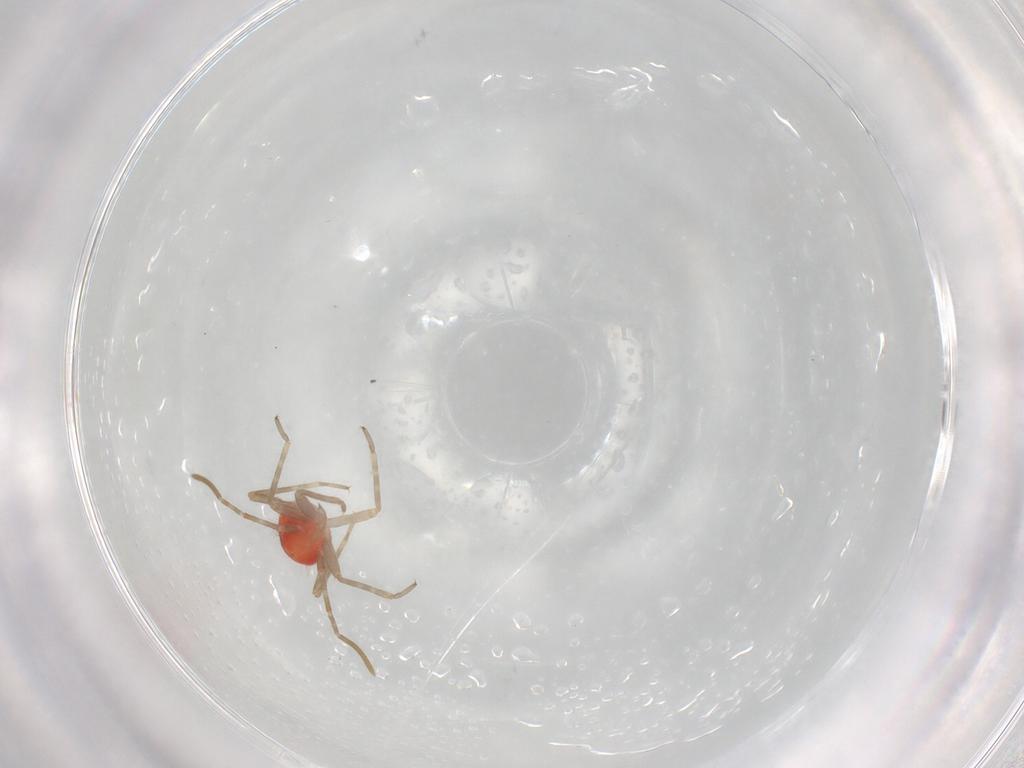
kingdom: Animalia
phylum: Arthropoda
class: Insecta
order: Hemiptera
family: Miridae
